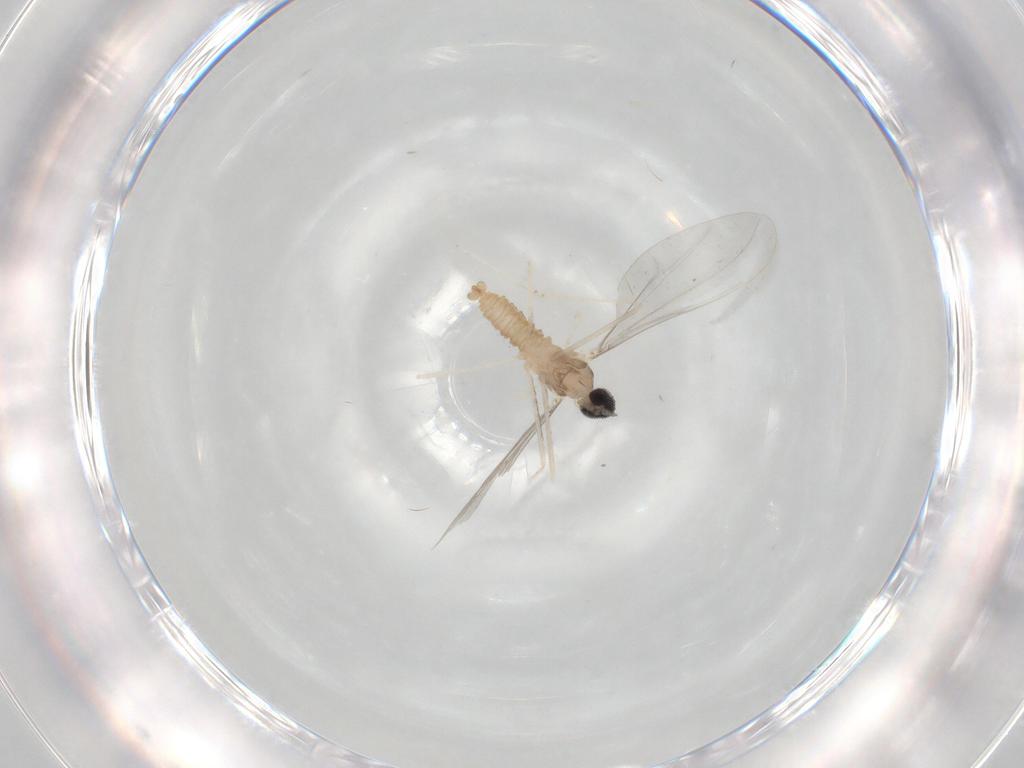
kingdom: Animalia
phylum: Arthropoda
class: Insecta
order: Diptera
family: Cecidomyiidae
